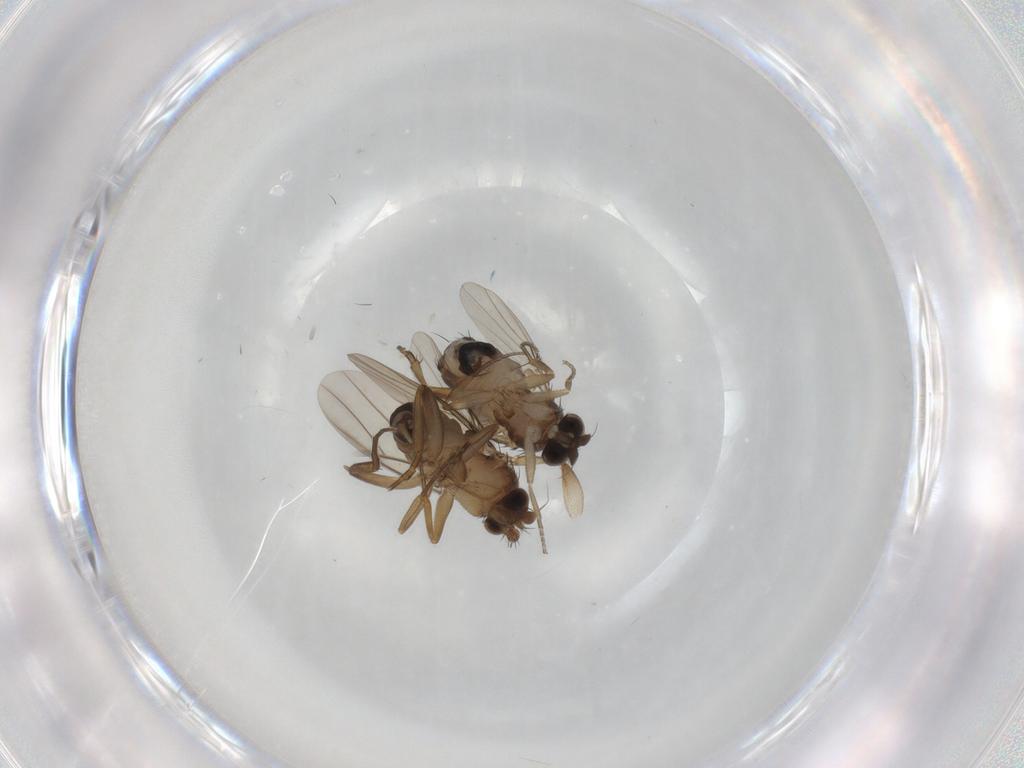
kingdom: Animalia
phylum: Arthropoda
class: Insecta
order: Diptera
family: Phoridae
